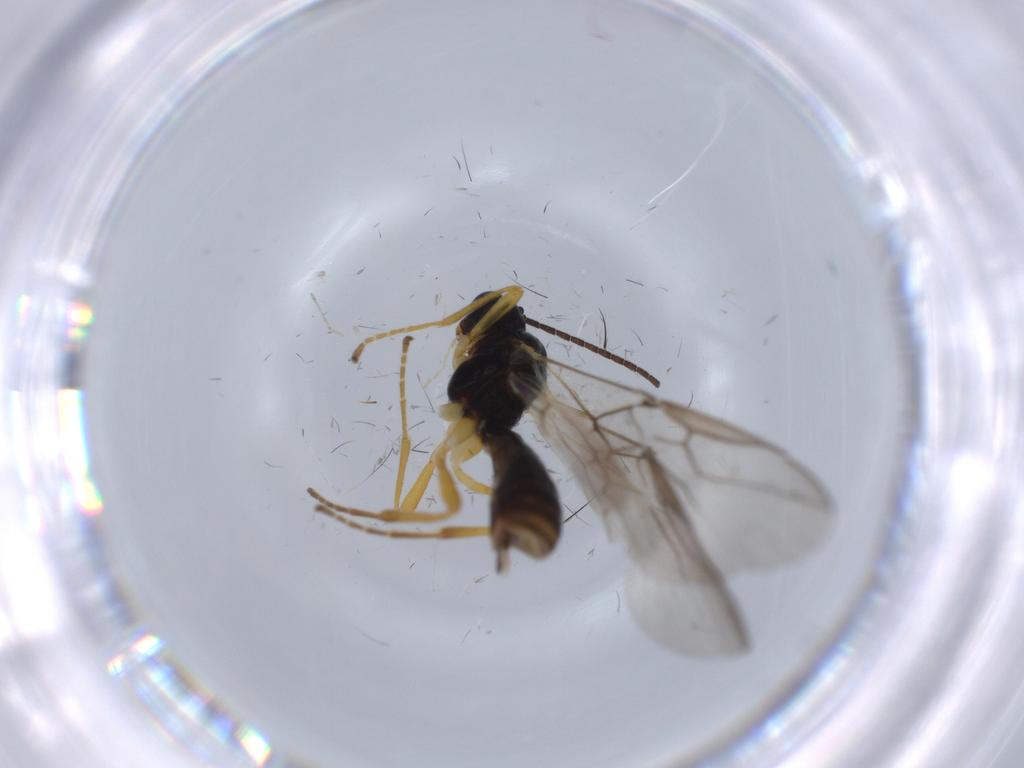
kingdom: Animalia
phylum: Arthropoda
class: Insecta
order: Hymenoptera
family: Braconidae
